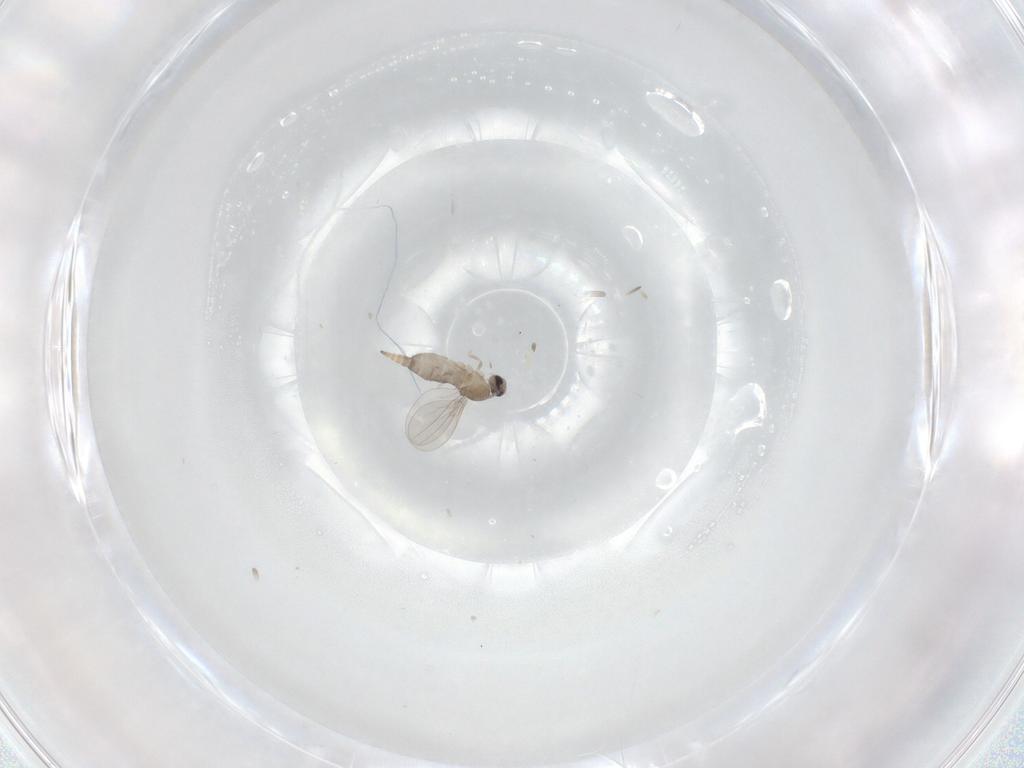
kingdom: Animalia
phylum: Arthropoda
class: Insecta
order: Diptera
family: Cecidomyiidae
